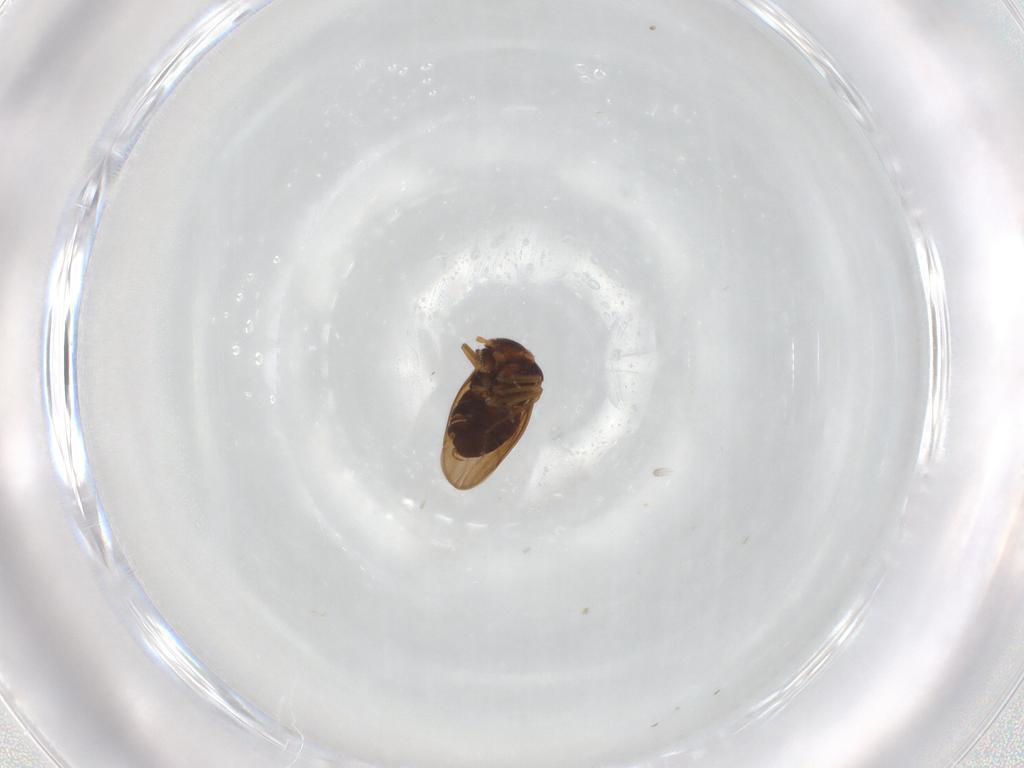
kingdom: Animalia
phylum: Arthropoda
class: Insecta
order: Hemiptera
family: Schizopteridae
